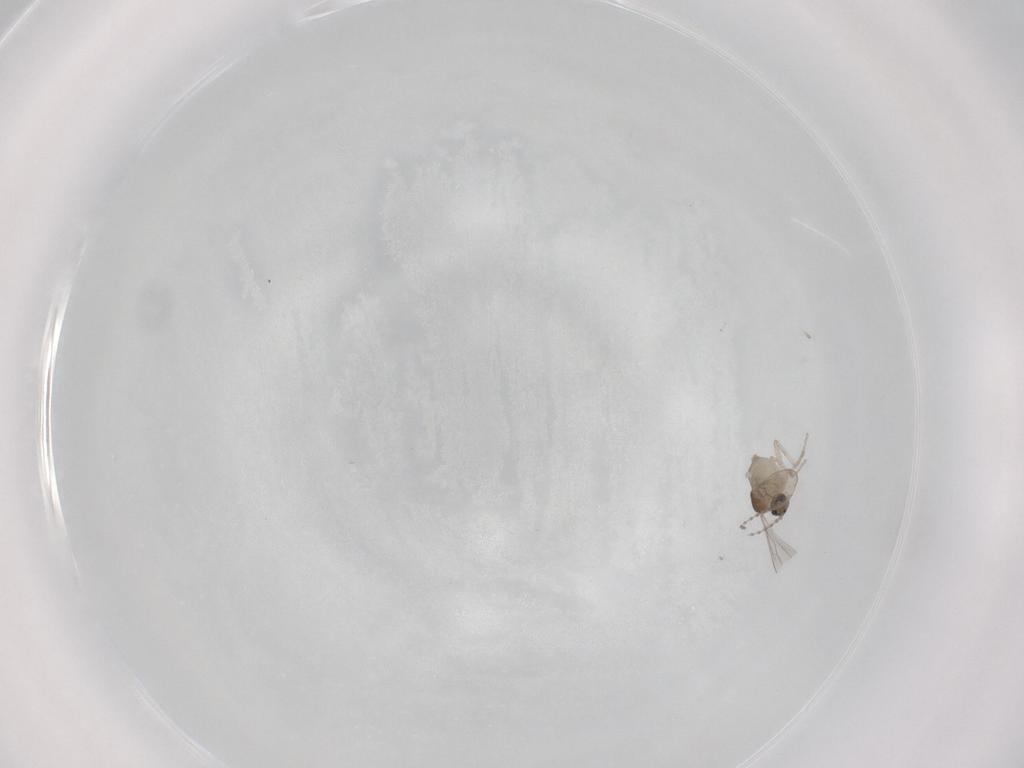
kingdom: Animalia
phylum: Arthropoda
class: Insecta
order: Diptera
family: Cecidomyiidae
